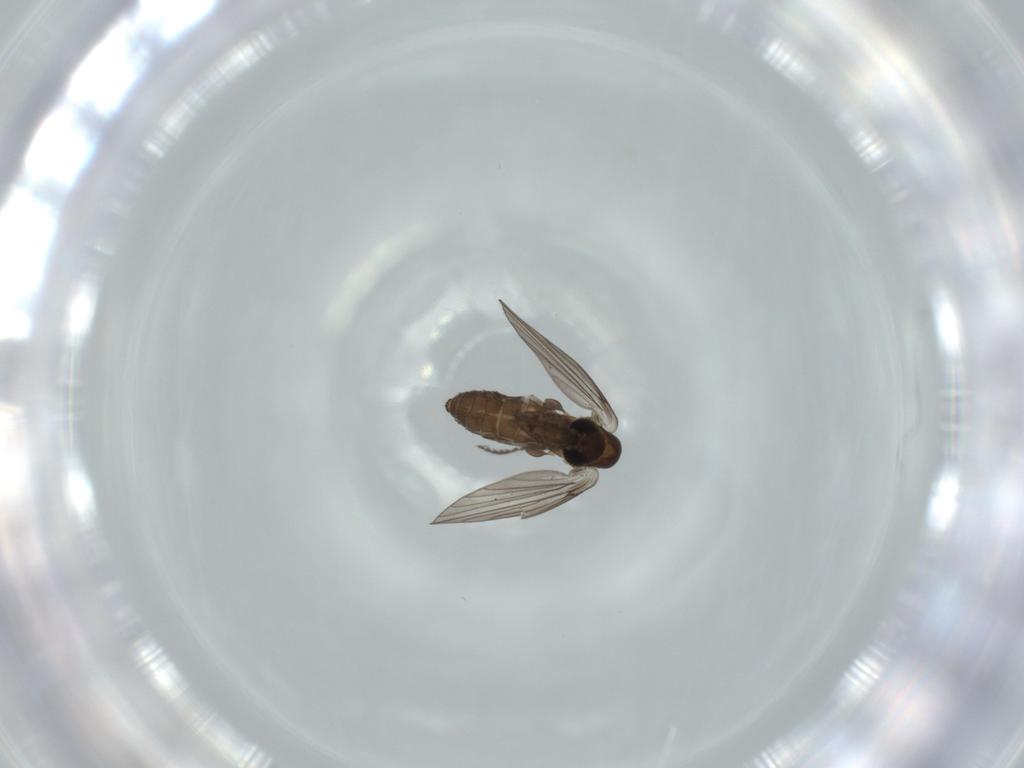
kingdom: Animalia
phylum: Arthropoda
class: Insecta
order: Diptera
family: Psychodidae
